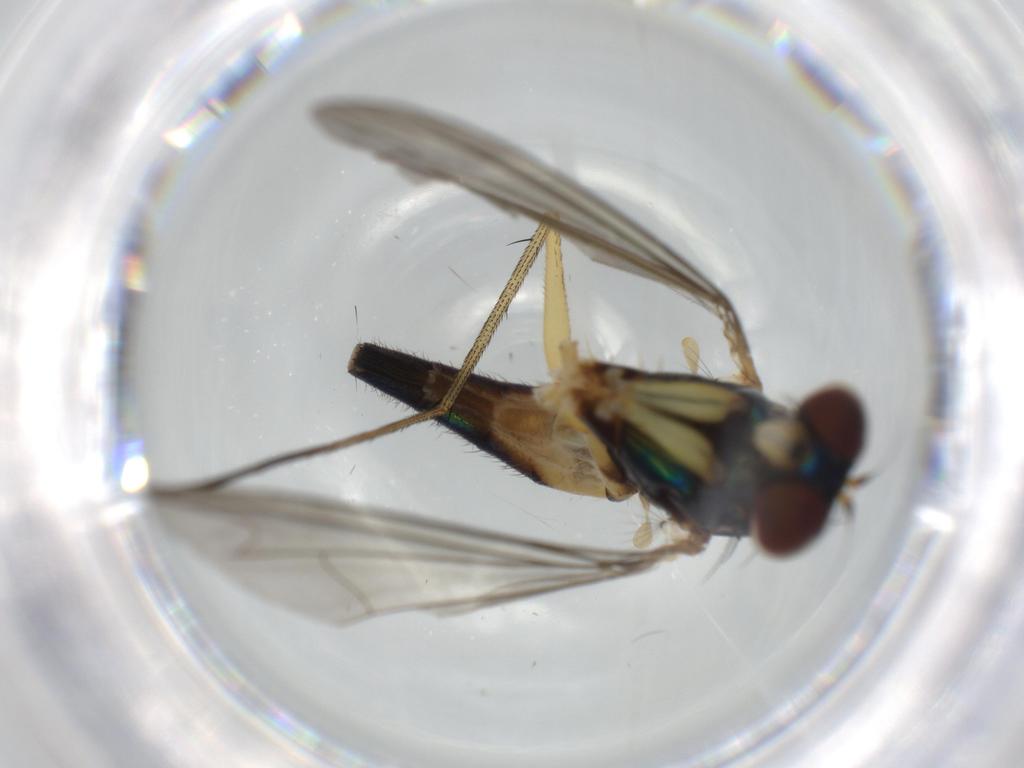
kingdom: Animalia
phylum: Arthropoda
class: Insecta
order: Diptera
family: Dolichopodidae
